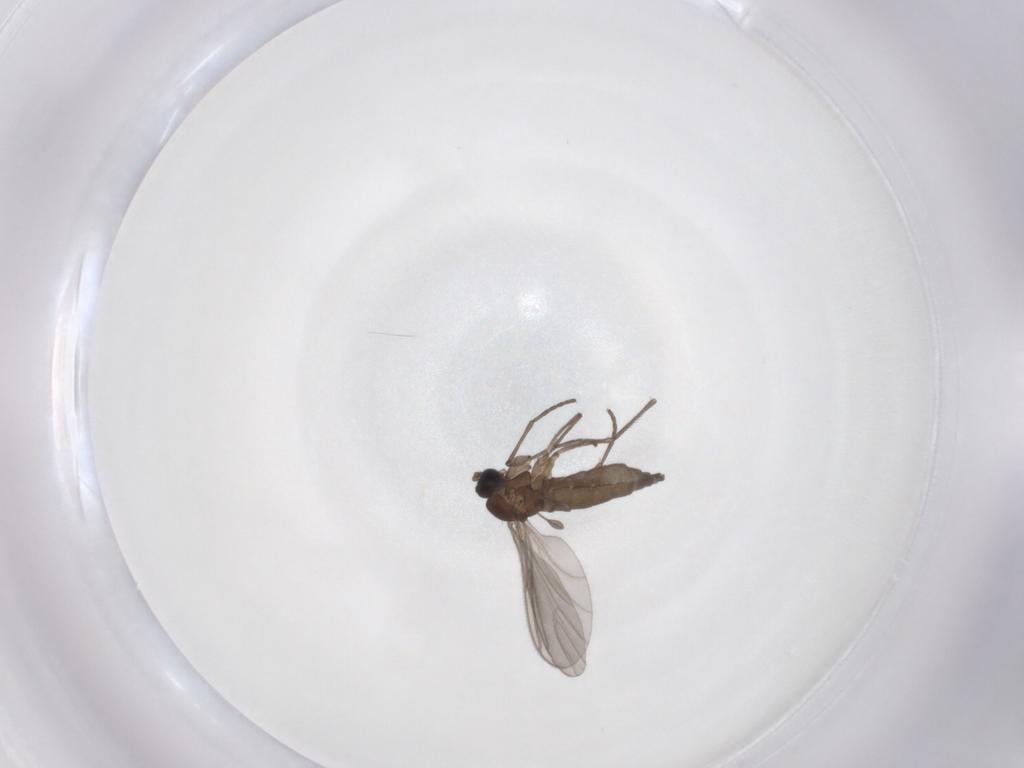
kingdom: Animalia
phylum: Arthropoda
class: Insecta
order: Diptera
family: Sciaridae
